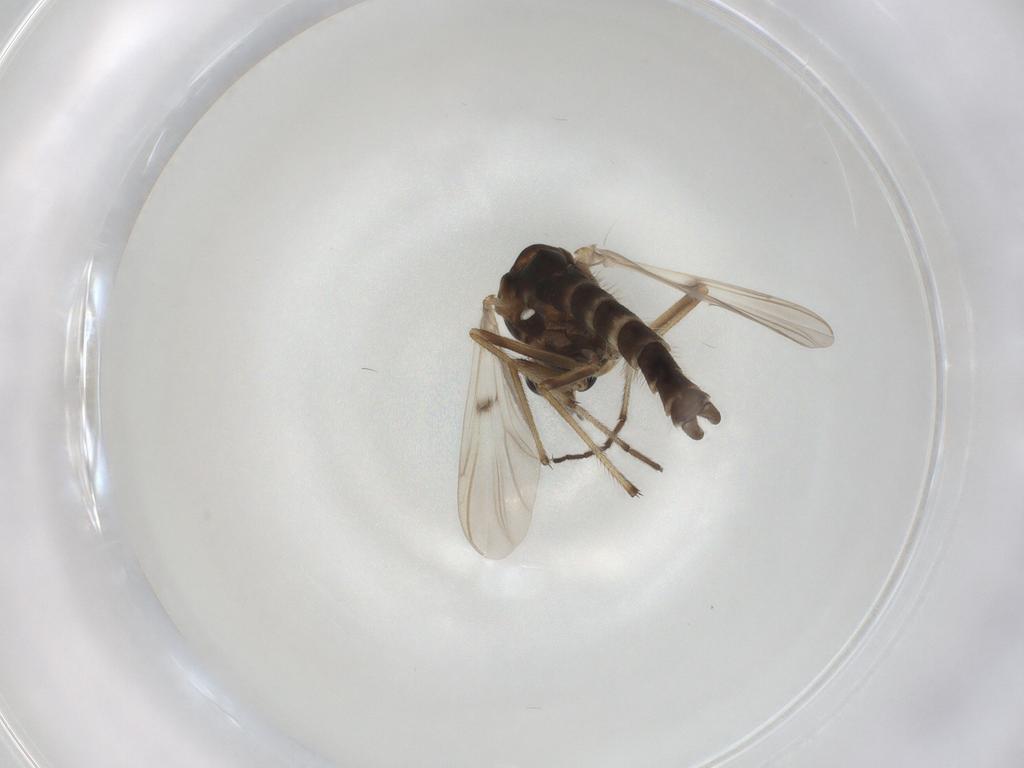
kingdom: Animalia
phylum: Arthropoda
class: Insecta
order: Diptera
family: Chironomidae
